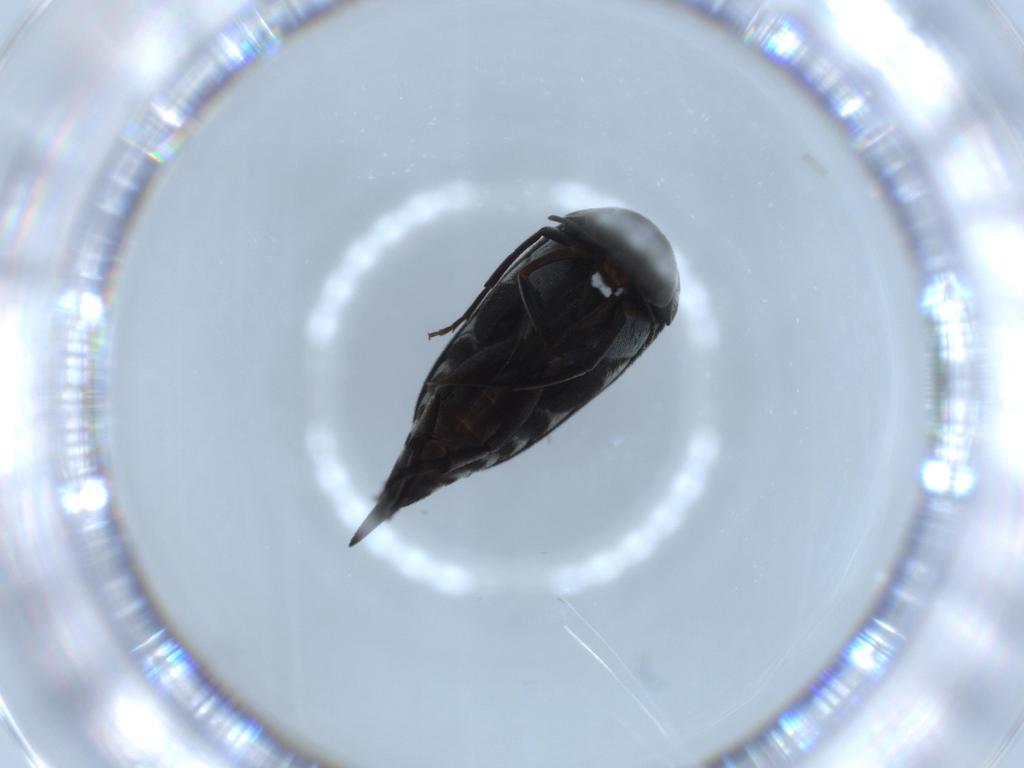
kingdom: Animalia
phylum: Arthropoda
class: Insecta
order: Coleoptera
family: Mordellidae
